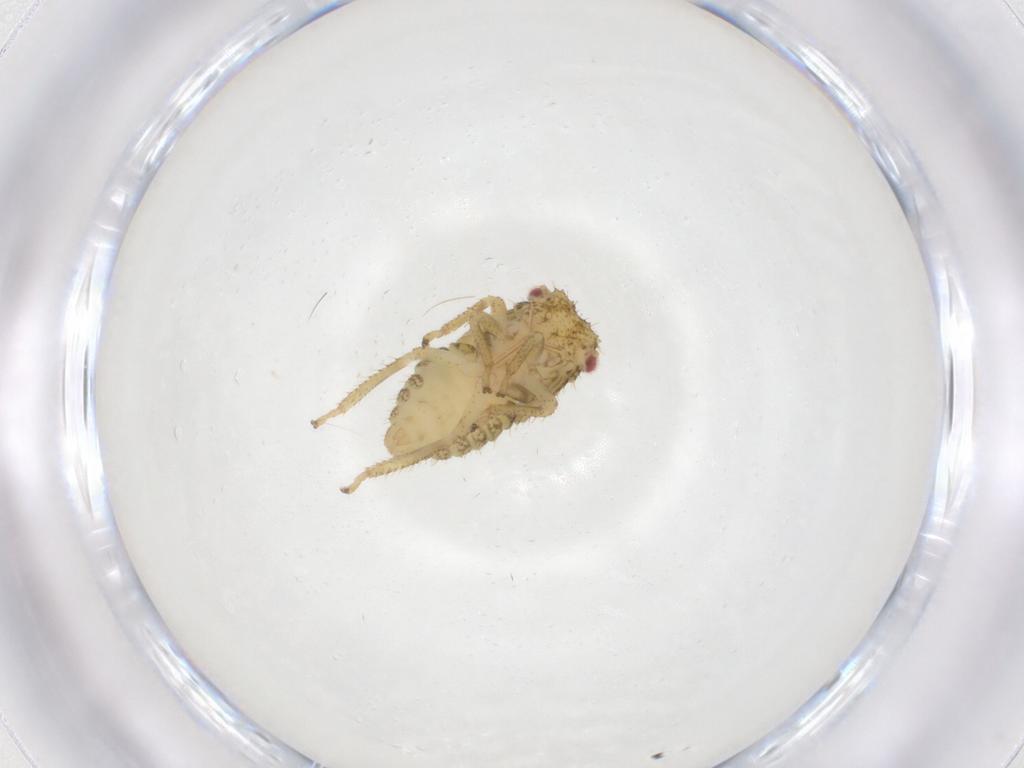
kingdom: Animalia
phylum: Arthropoda
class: Insecta
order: Hemiptera
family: Cicadellidae
